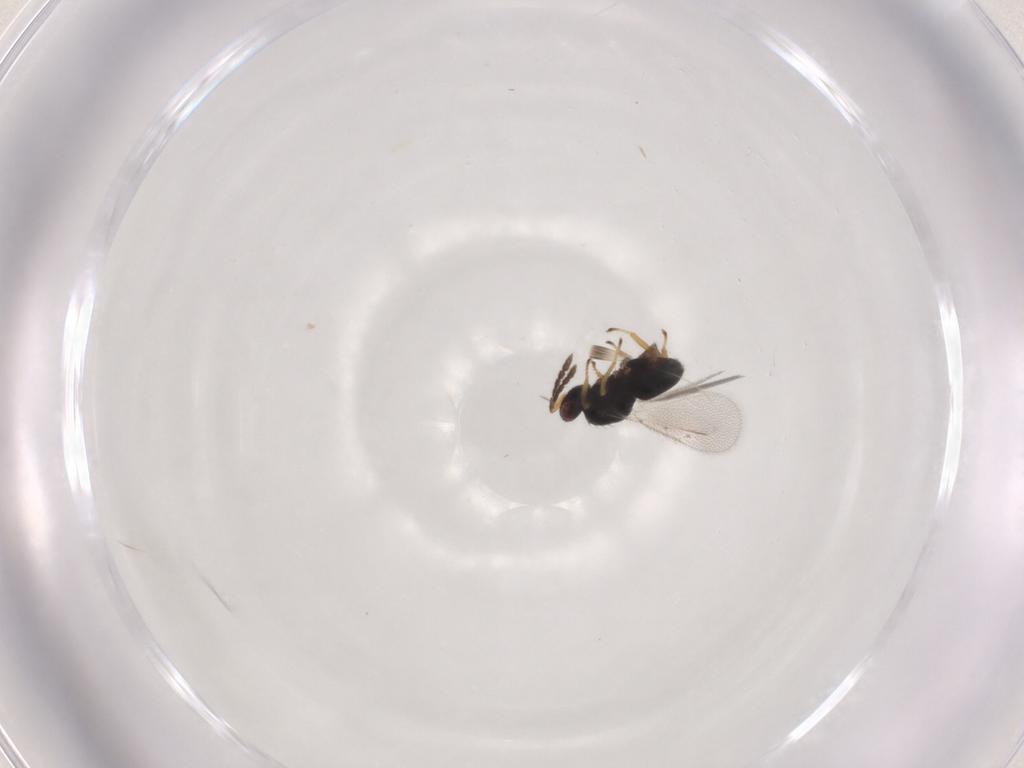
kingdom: Animalia
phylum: Arthropoda
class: Insecta
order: Hymenoptera
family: Eulophidae
